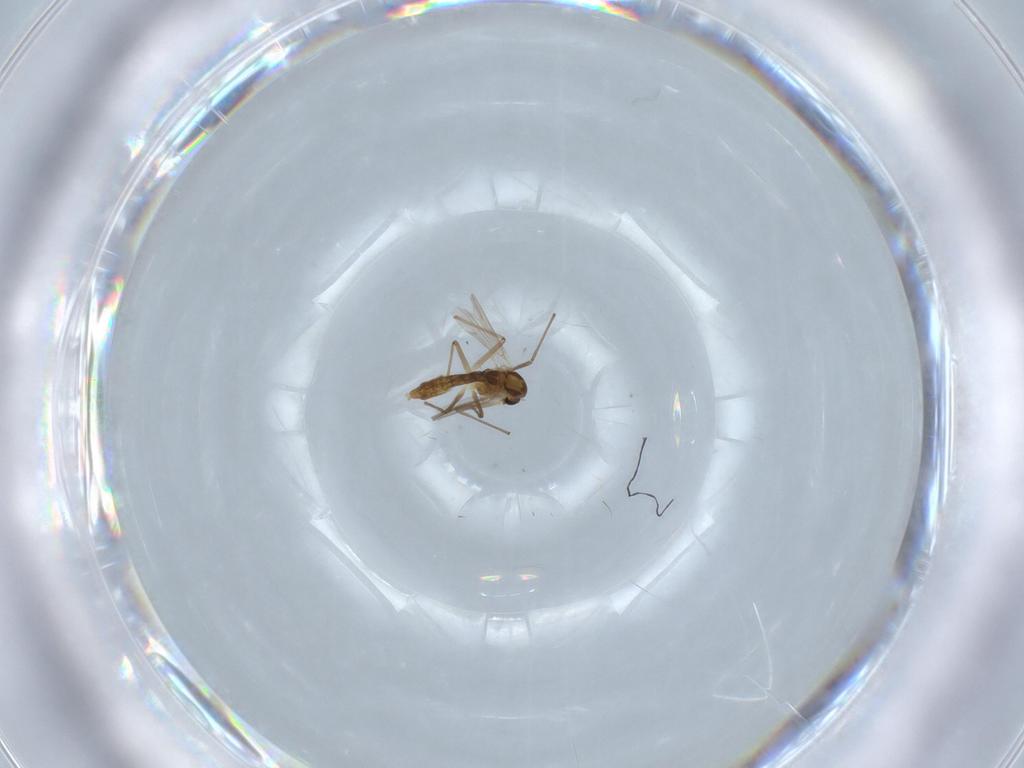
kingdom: Animalia
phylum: Arthropoda
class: Insecta
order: Diptera
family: Chironomidae
